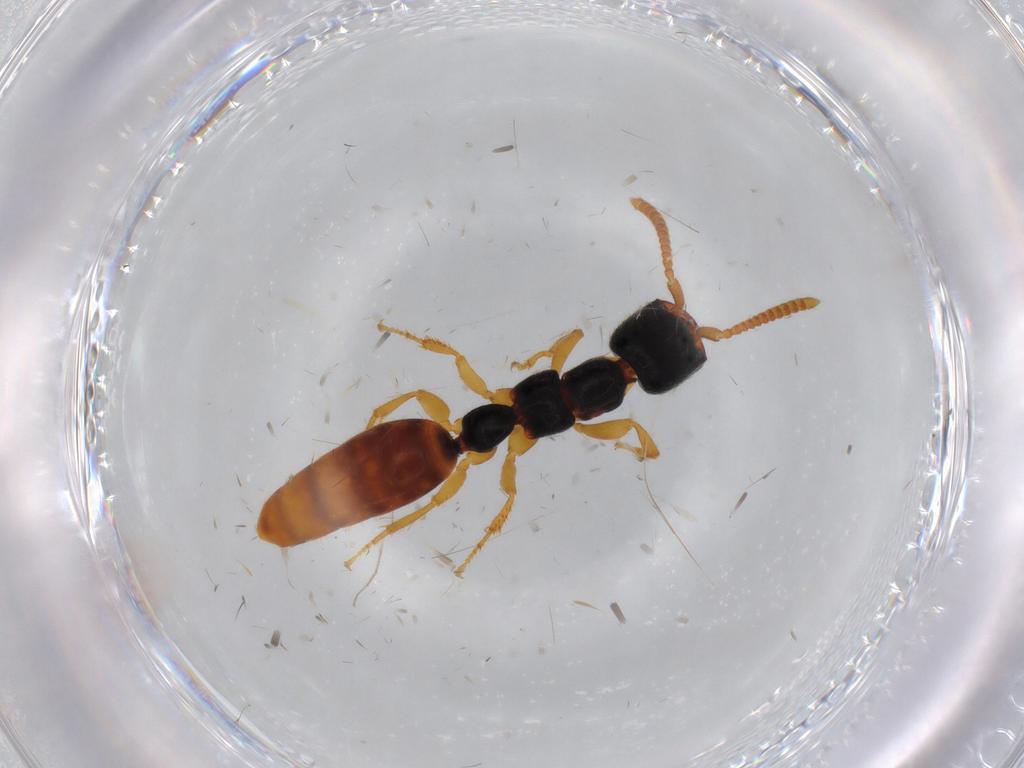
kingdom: Animalia
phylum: Arthropoda
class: Insecta
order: Hymenoptera
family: Bethylidae
